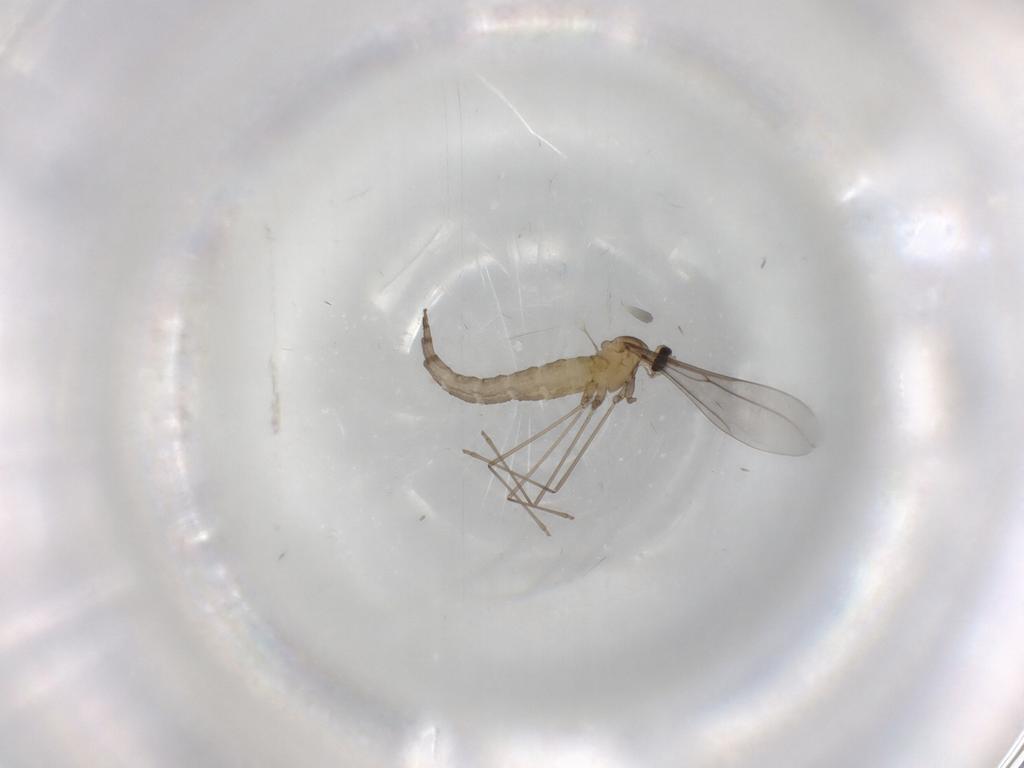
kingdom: Animalia
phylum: Arthropoda
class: Insecta
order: Diptera
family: Cecidomyiidae
